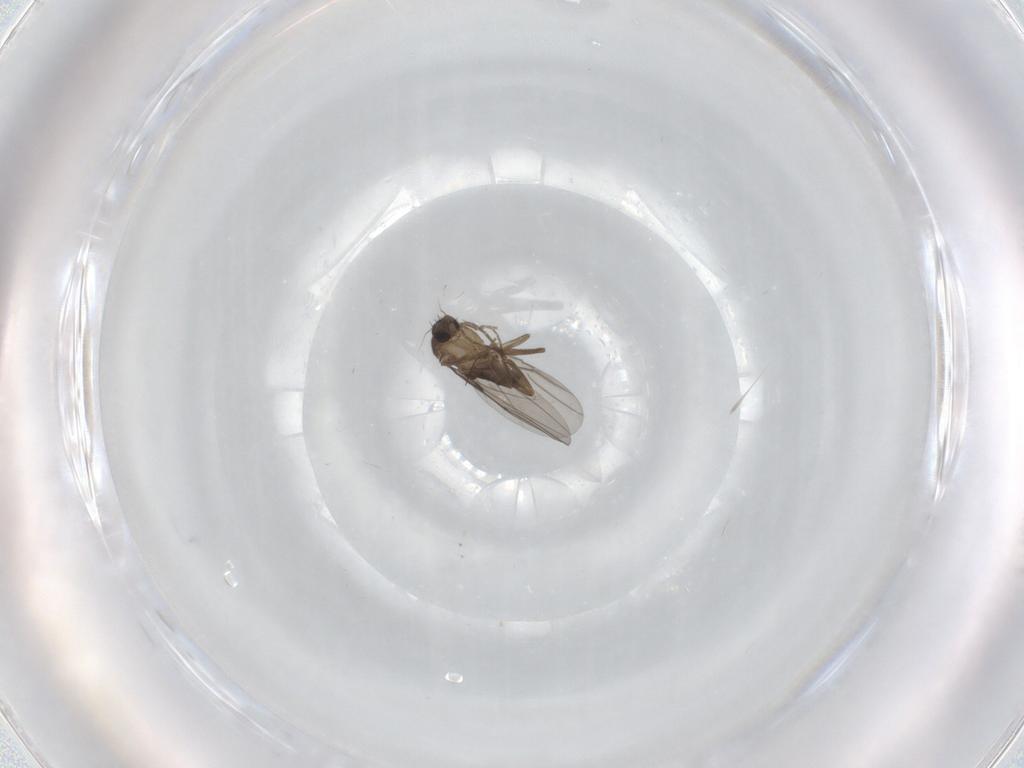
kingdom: Animalia
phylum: Arthropoda
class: Insecta
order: Diptera
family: Phoridae
